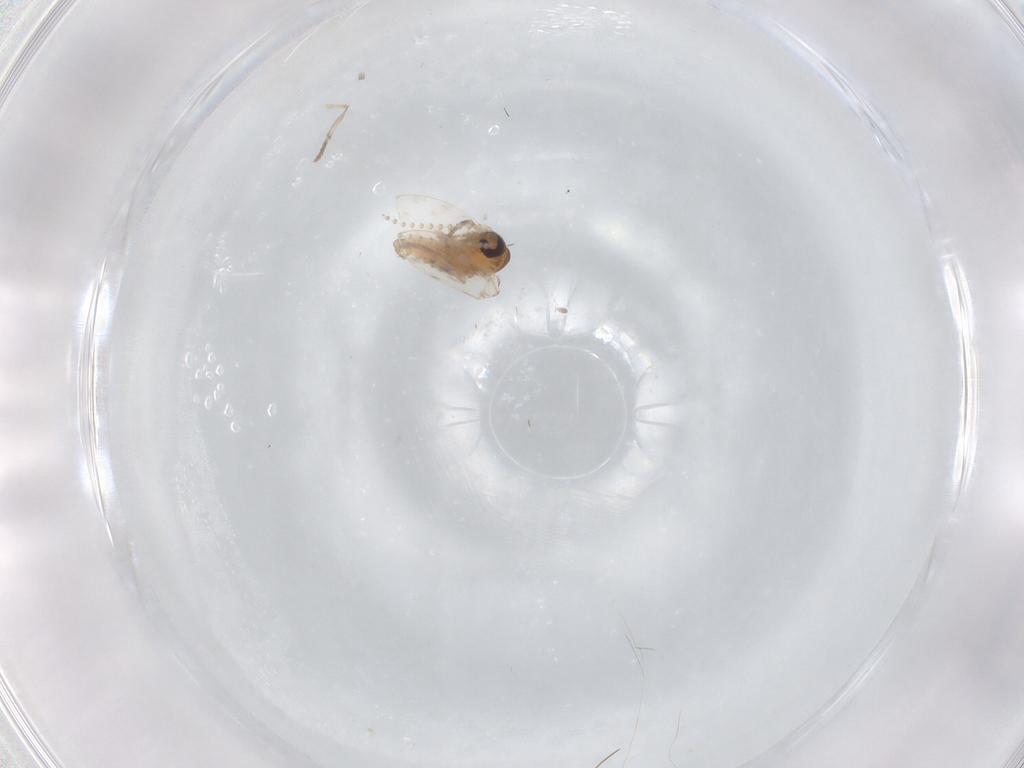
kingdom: Animalia
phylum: Arthropoda
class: Insecta
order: Diptera
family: Psychodidae
